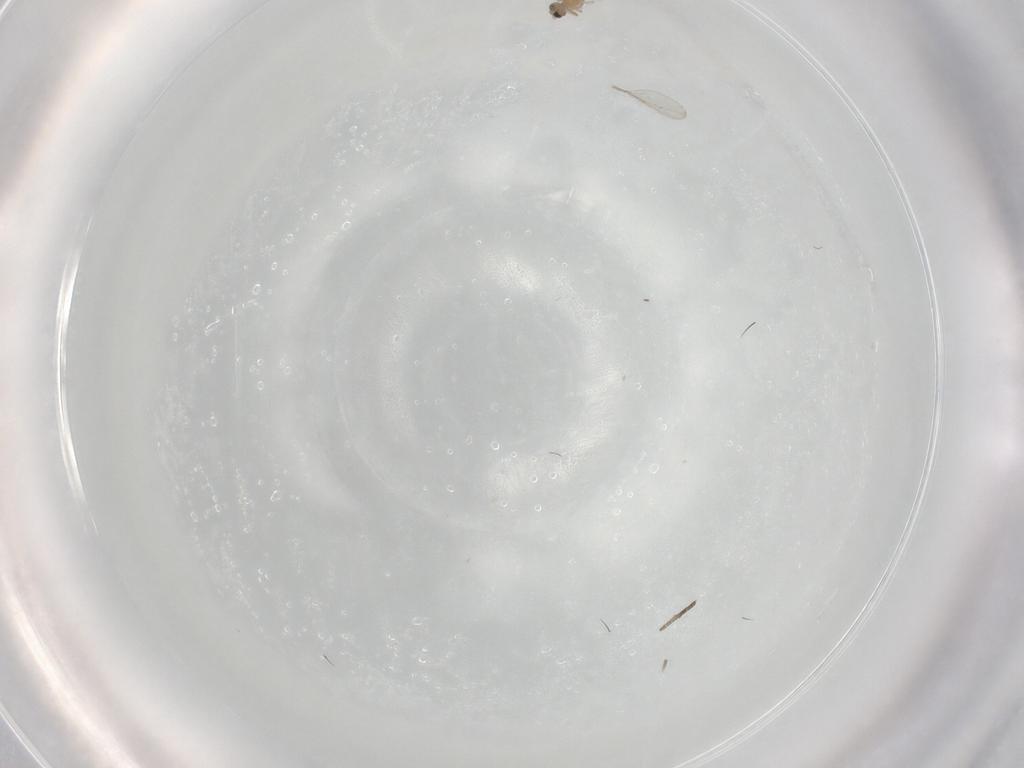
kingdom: Animalia
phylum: Arthropoda
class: Insecta
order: Diptera
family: Cecidomyiidae
